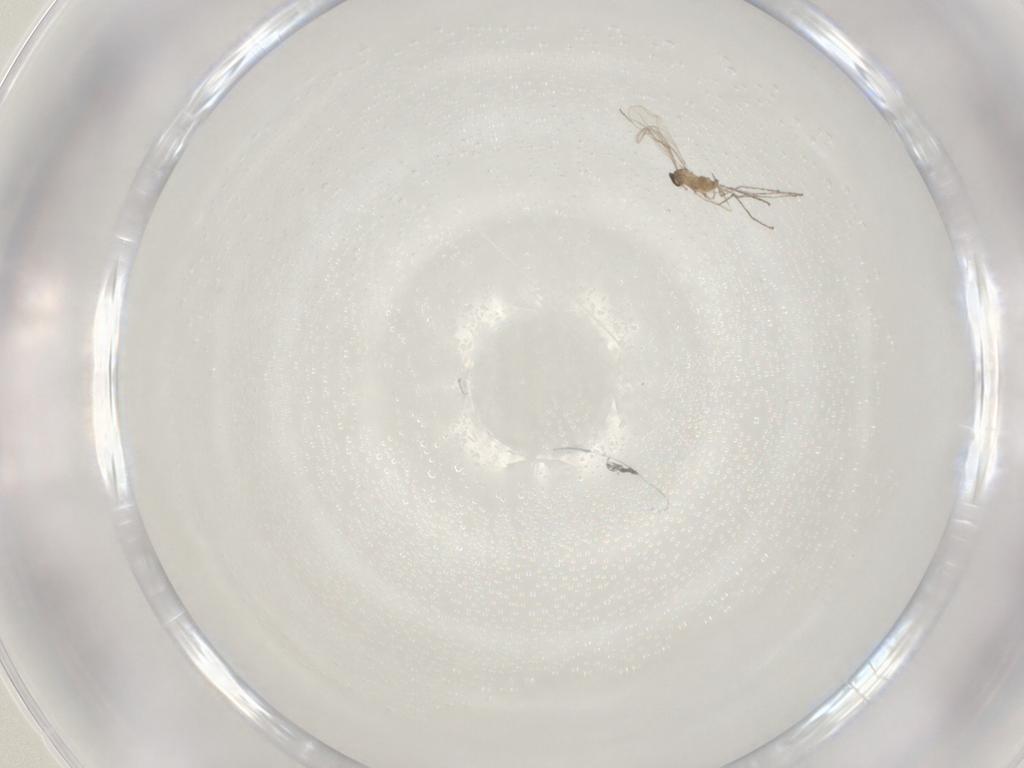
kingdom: Animalia
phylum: Arthropoda
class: Insecta
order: Diptera
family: Cecidomyiidae
